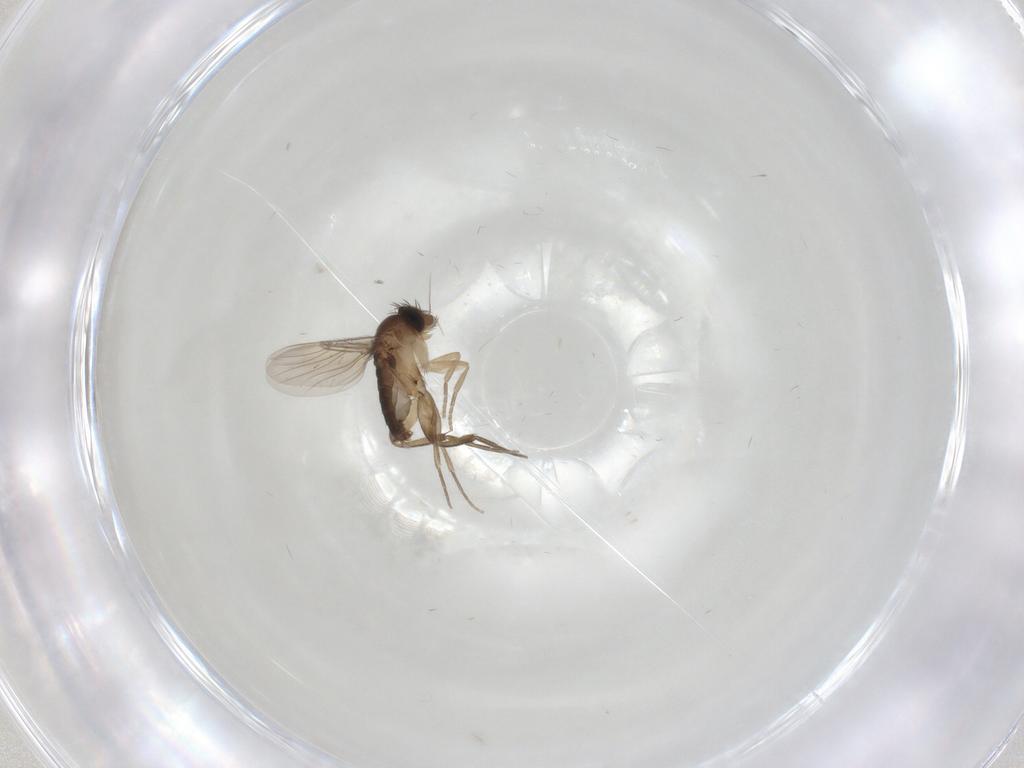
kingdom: Animalia
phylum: Arthropoda
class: Insecta
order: Diptera
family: Phoridae
